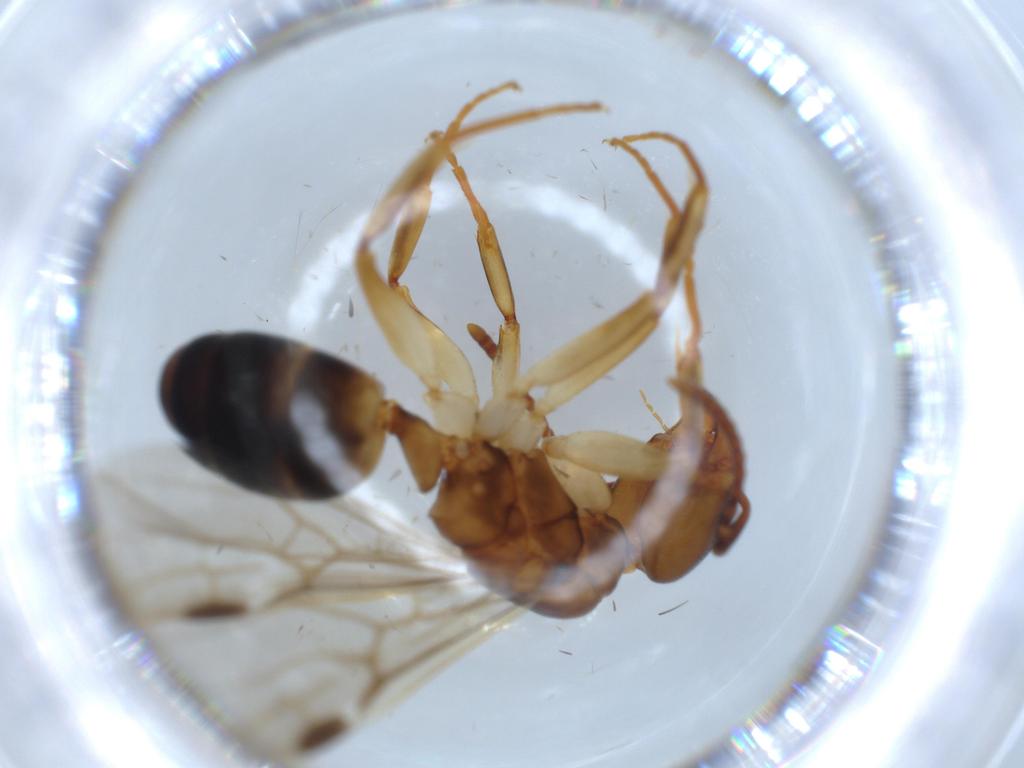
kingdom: Animalia
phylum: Arthropoda
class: Insecta
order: Hymenoptera
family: Formicidae
